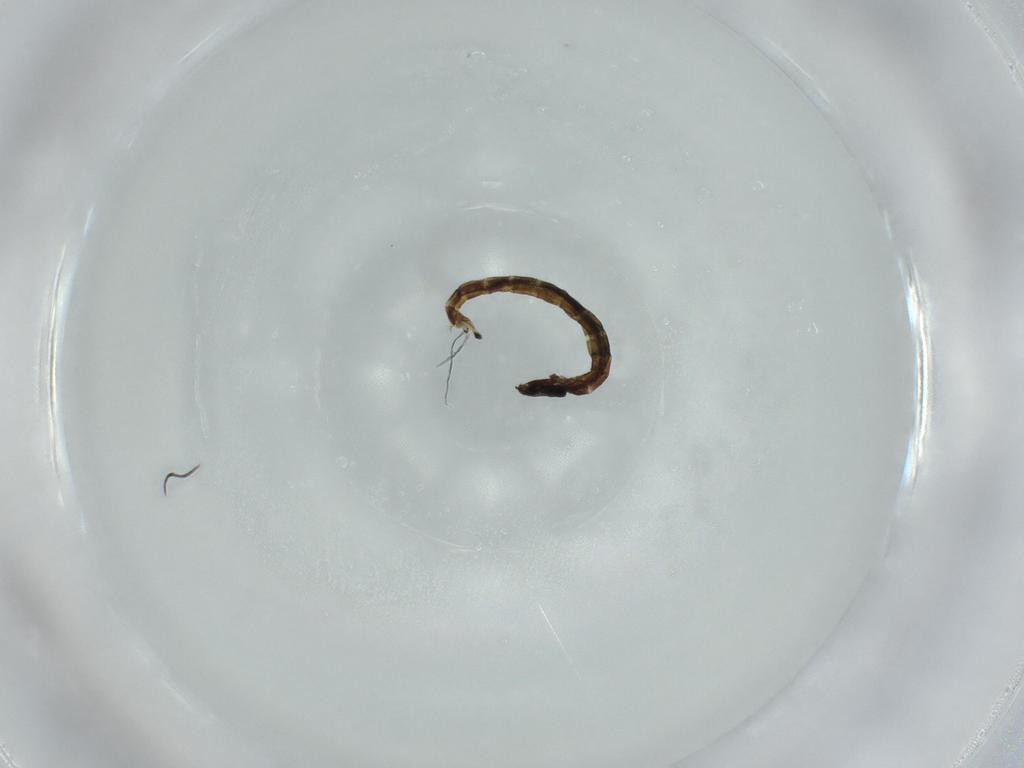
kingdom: Animalia
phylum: Arthropoda
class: Insecta
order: Diptera
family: Chironomidae
